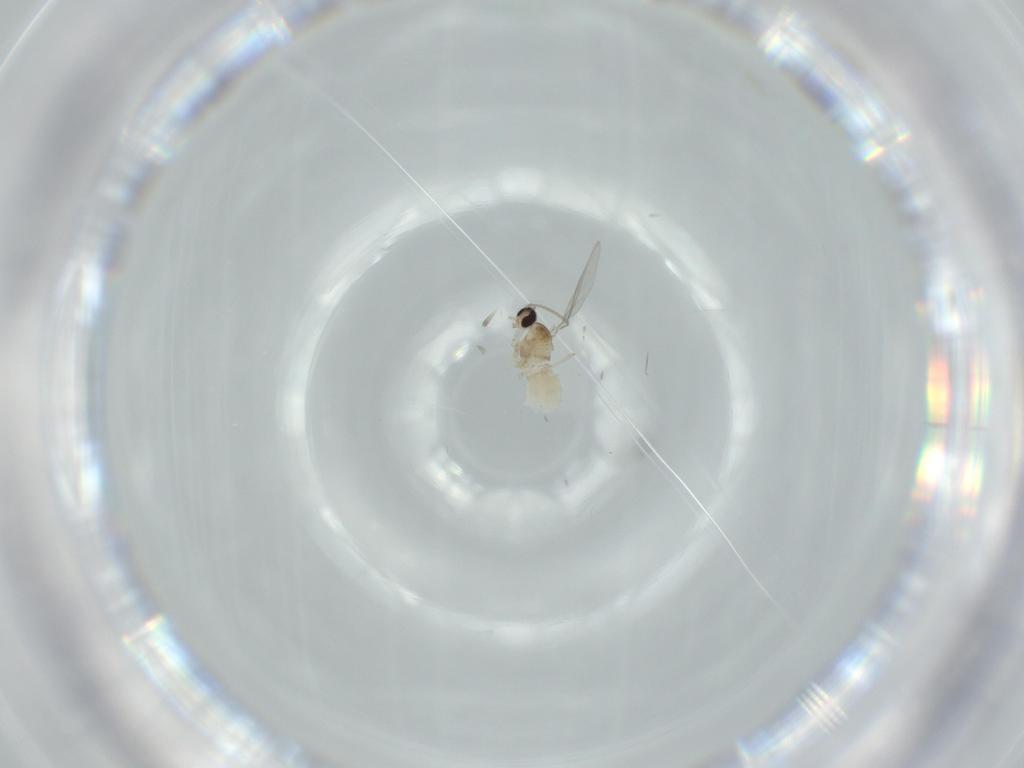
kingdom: Animalia
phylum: Arthropoda
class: Insecta
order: Diptera
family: Cecidomyiidae
